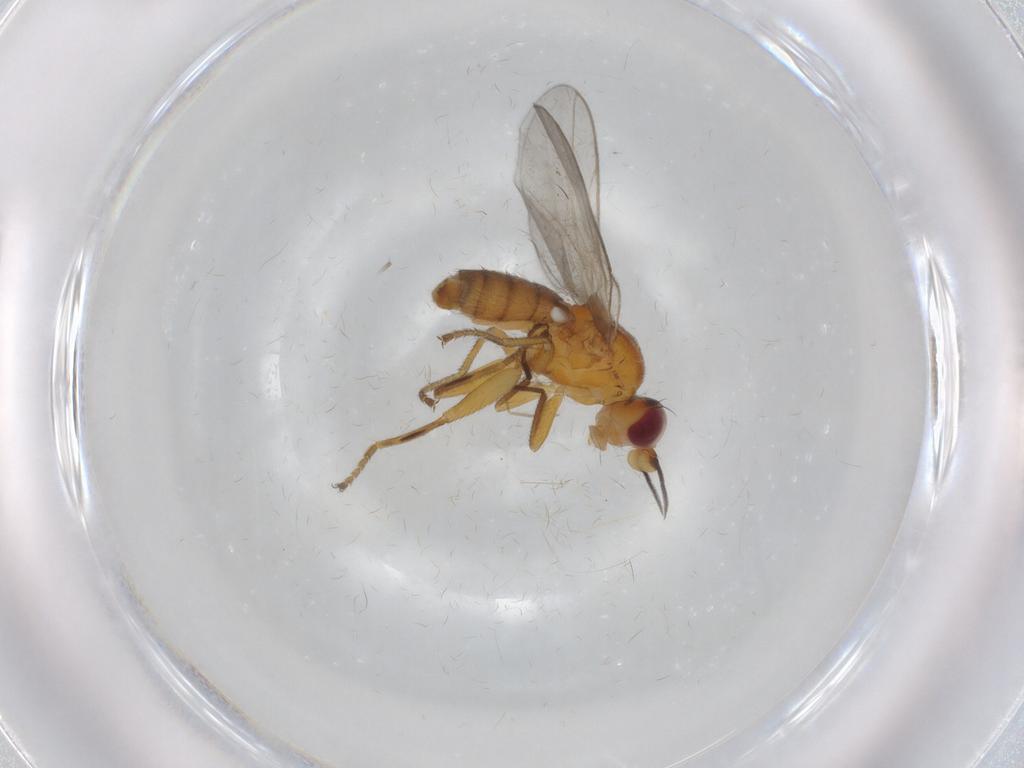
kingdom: Animalia
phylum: Arthropoda
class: Insecta
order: Diptera
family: Chloropidae
